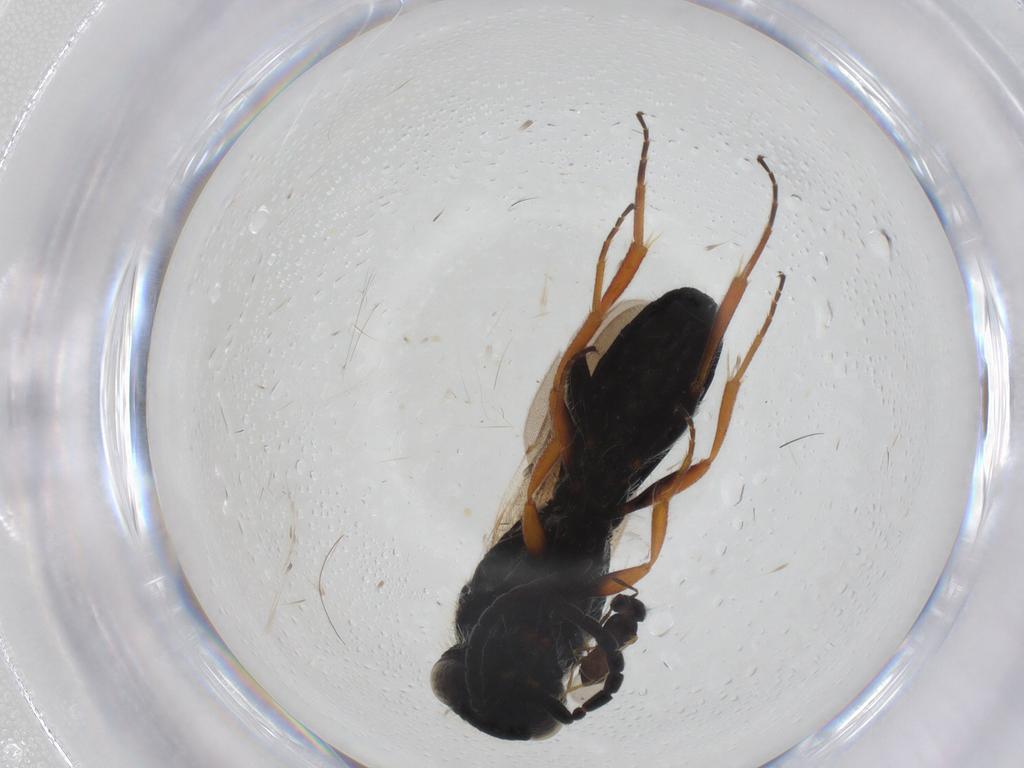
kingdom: Animalia
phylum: Arthropoda
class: Insecta
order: Hymenoptera
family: Scelionidae
